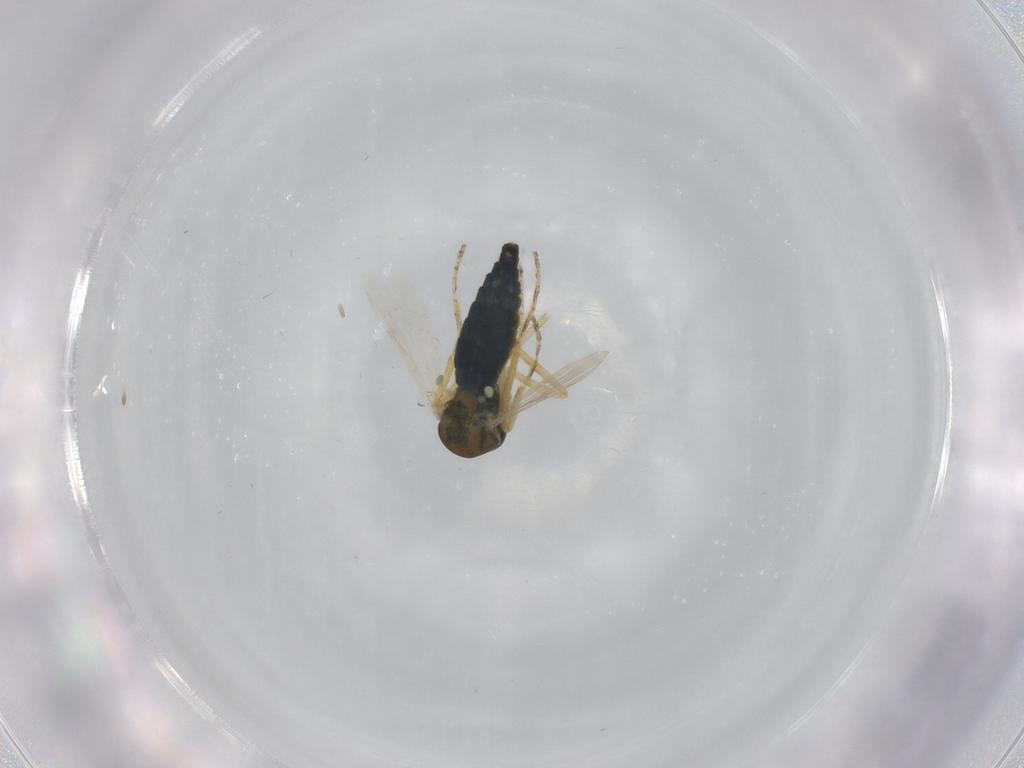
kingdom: Animalia
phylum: Arthropoda
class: Insecta
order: Diptera
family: Ceratopogonidae
